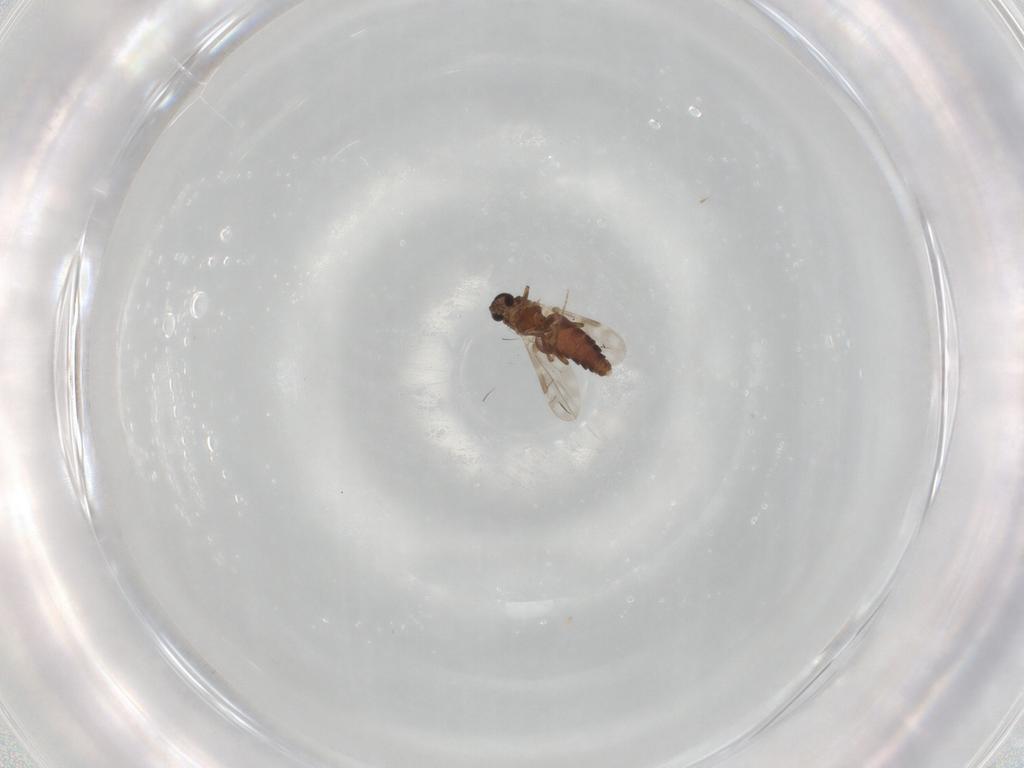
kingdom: Animalia
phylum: Arthropoda
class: Insecta
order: Diptera
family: Ceratopogonidae
